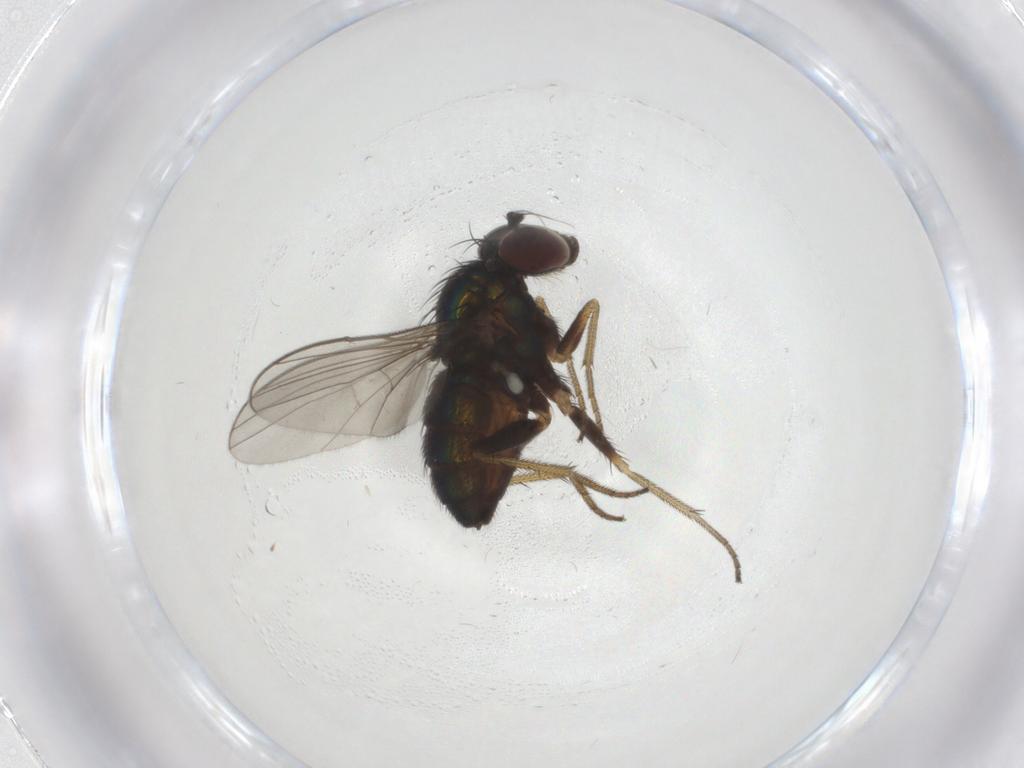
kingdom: Animalia
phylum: Arthropoda
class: Insecta
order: Diptera
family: Dolichopodidae
